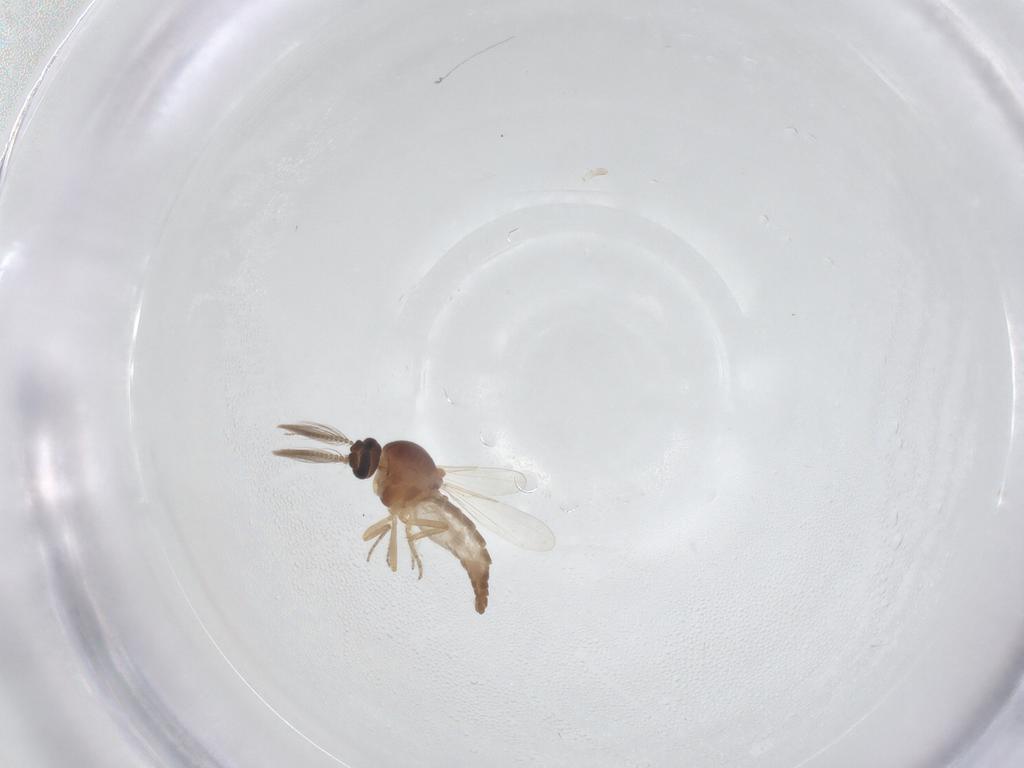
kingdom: Animalia
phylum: Arthropoda
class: Insecta
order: Diptera
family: Ceratopogonidae
